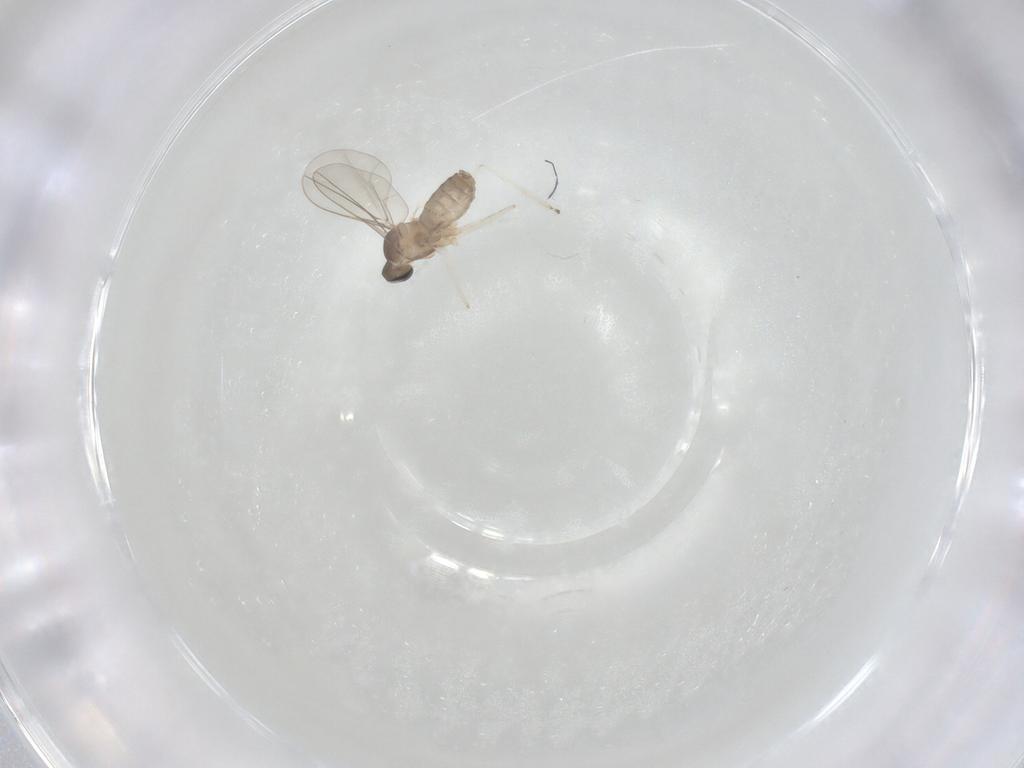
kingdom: Animalia
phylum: Arthropoda
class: Insecta
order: Diptera
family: Cecidomyiidae
